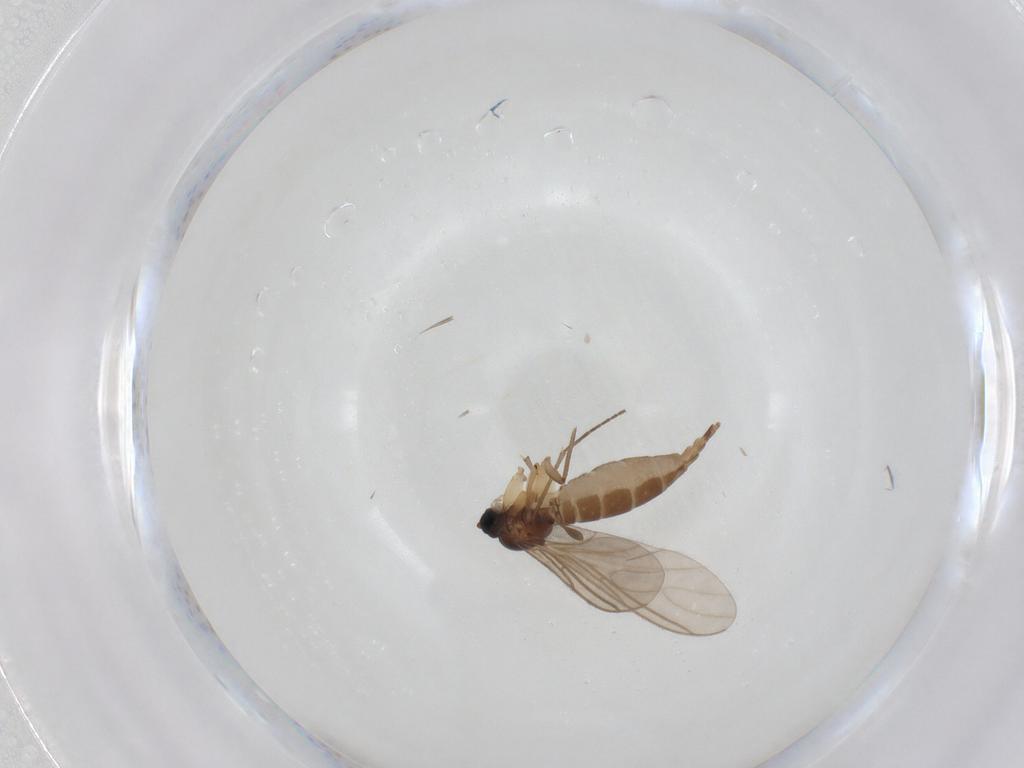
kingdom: Animalia
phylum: Arthropoda
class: Insecta
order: Diptera
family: Sciaridae
